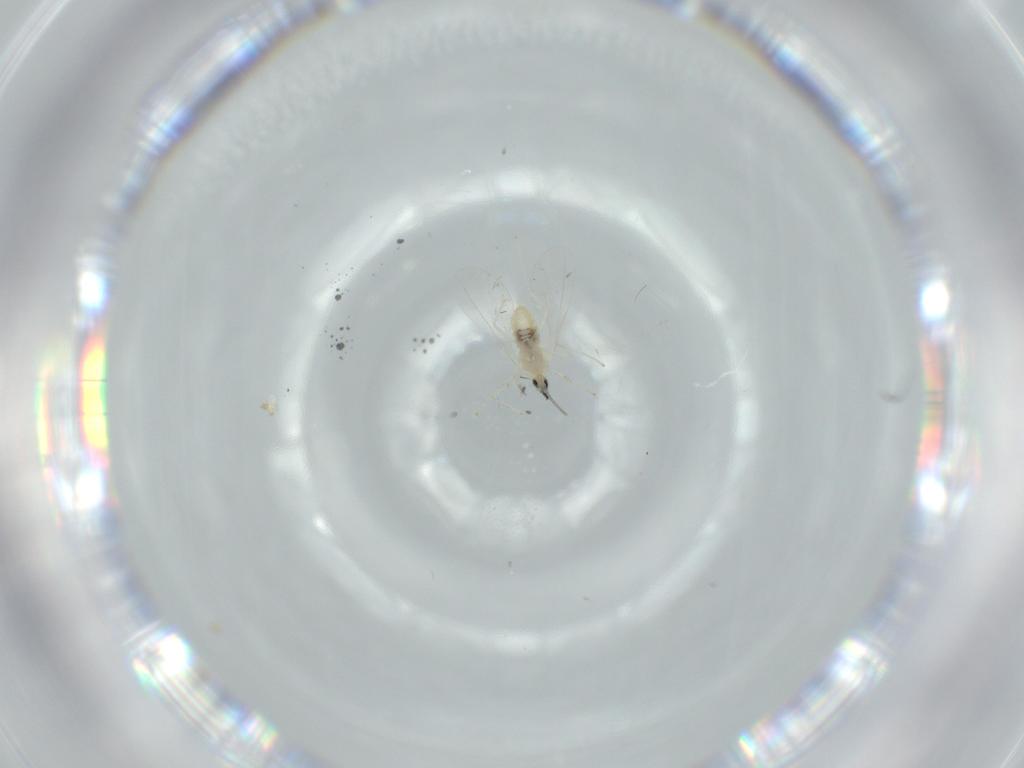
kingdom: Animalia
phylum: Arthropoda
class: Insecta
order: Diptera
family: Cecidomyiidae
